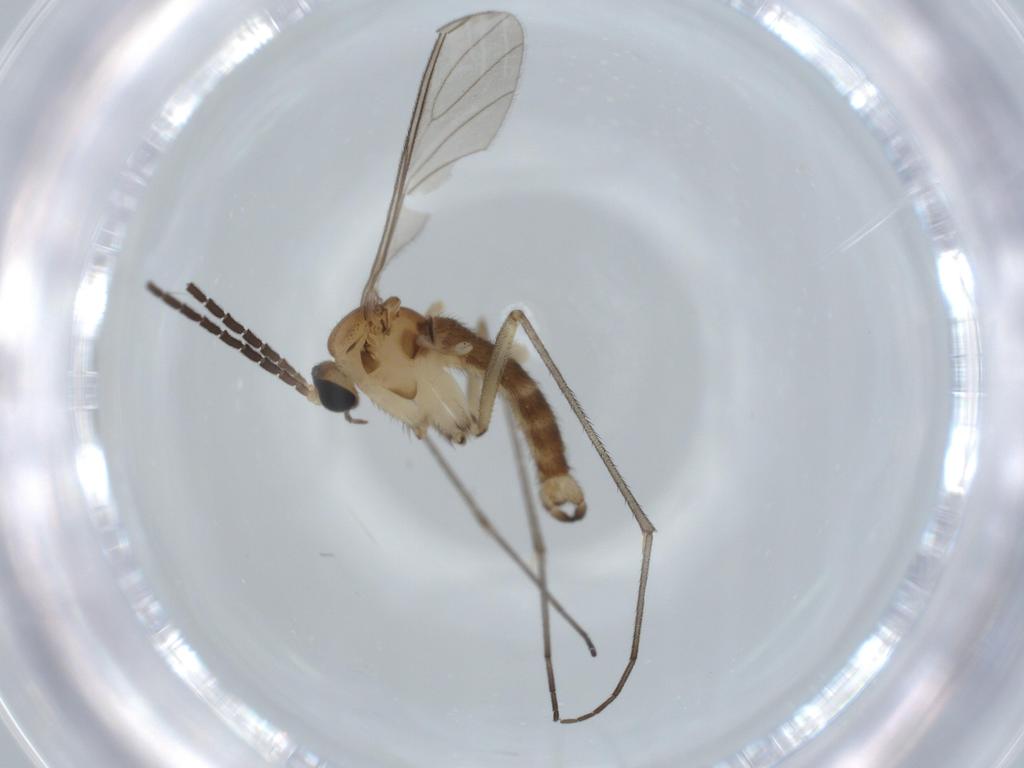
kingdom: Animalia
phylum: Arthropoda
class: Insecta
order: Diptera
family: Sciaridae
